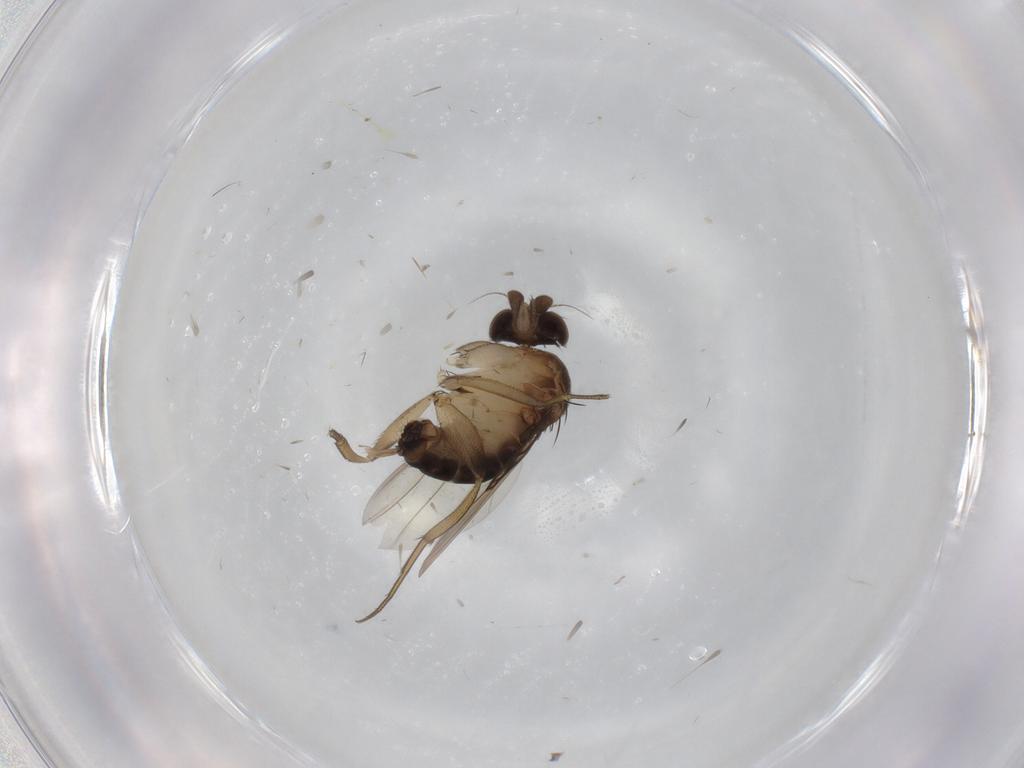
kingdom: Animalia
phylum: Arthropoda
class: Insecta
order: Diptera
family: Phoridae
